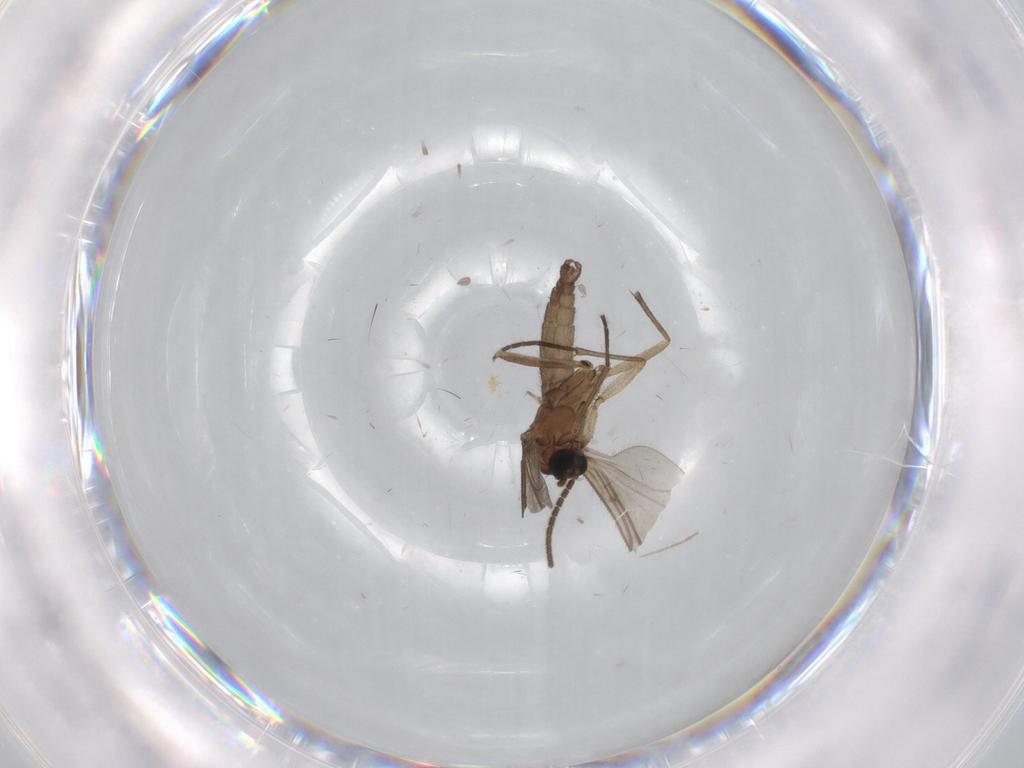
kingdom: Animalia
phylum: Arthropoda
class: Insecta
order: Diptera
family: Sciaridae
